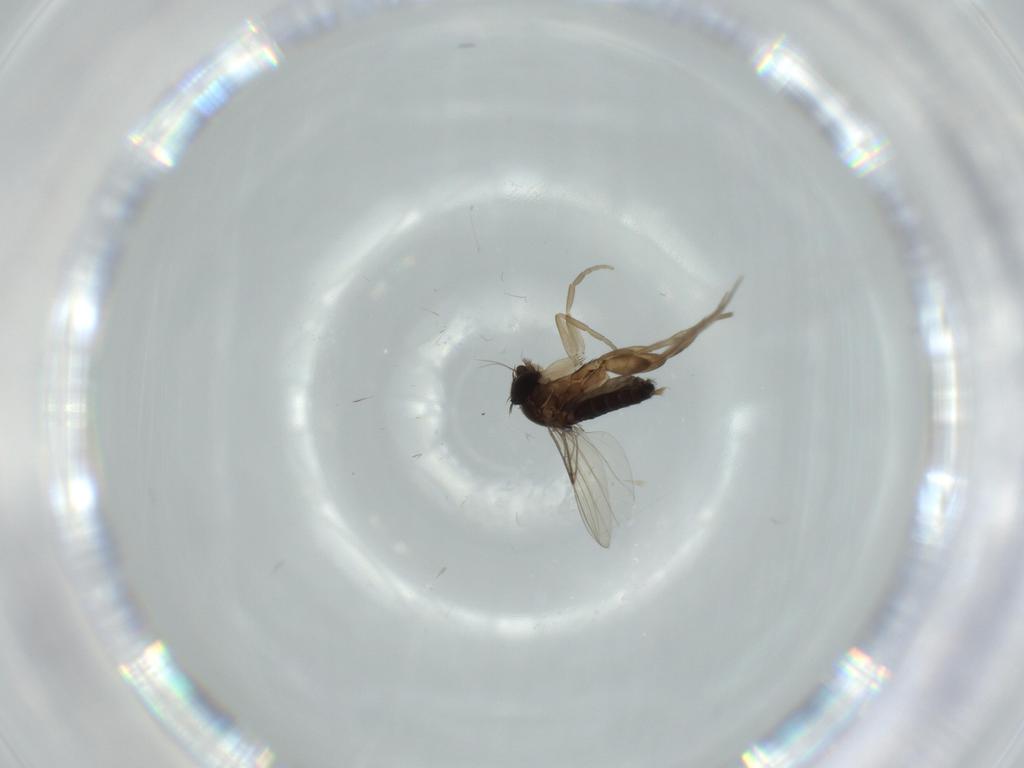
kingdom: Animalia
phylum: Arthropoda
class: Insecta
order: Diptera
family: Phoridae
